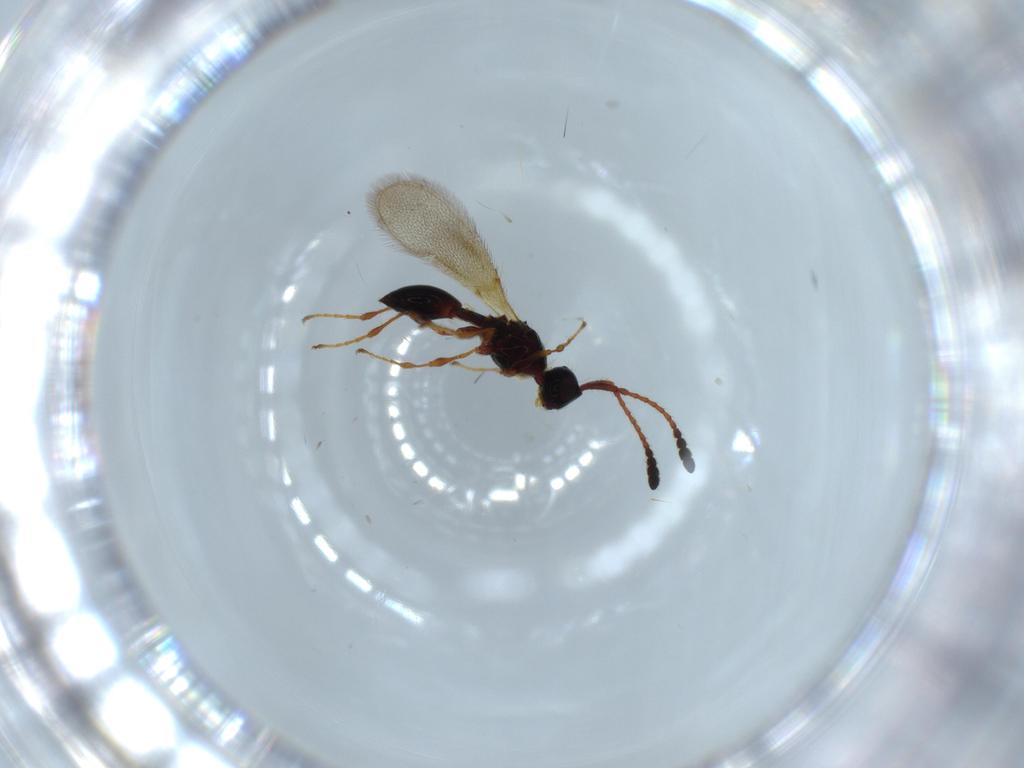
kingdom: Animalia
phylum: Arthropoda
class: Insecta
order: Hymenoptera
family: Diapriidae
